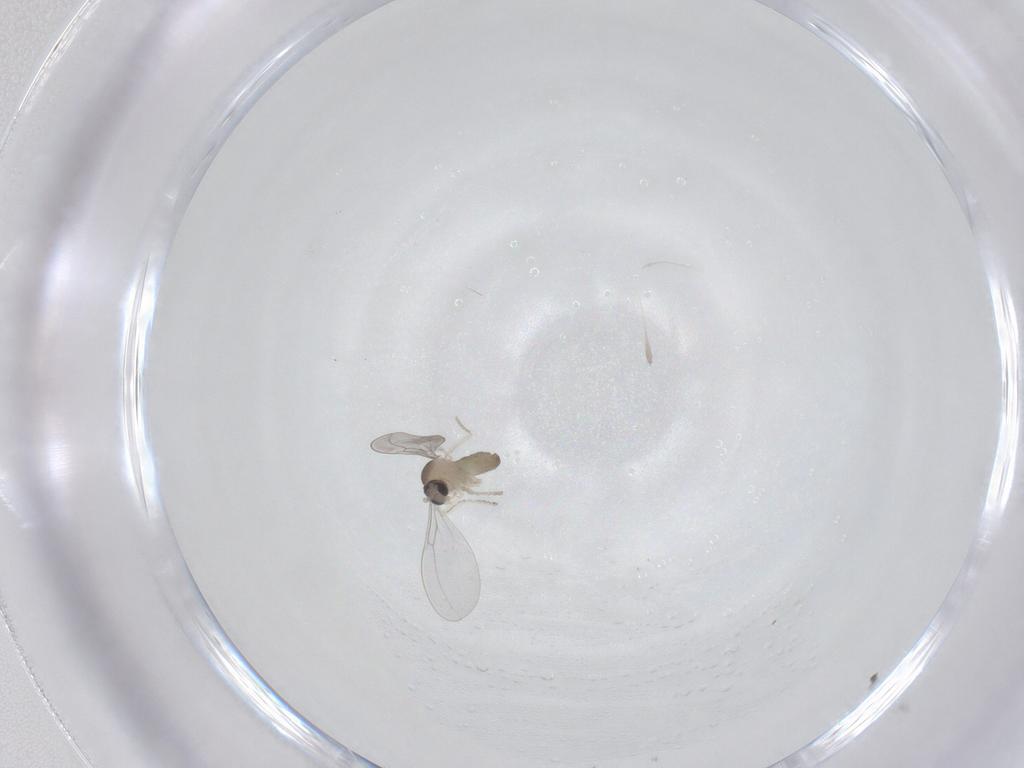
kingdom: Animalia
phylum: Arthropoda
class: Insecta
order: Diptera
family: Cecidomyiidae
